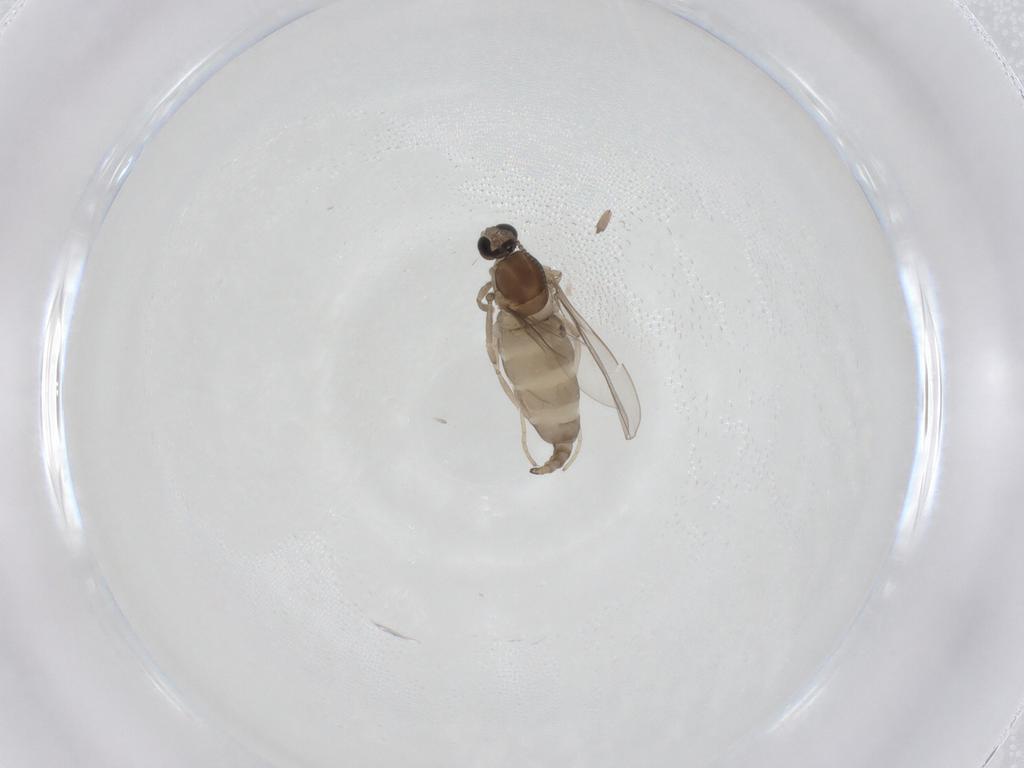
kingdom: Animalia
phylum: Arthropoda
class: Insecta
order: Diptera
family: Cecidomyiidae
